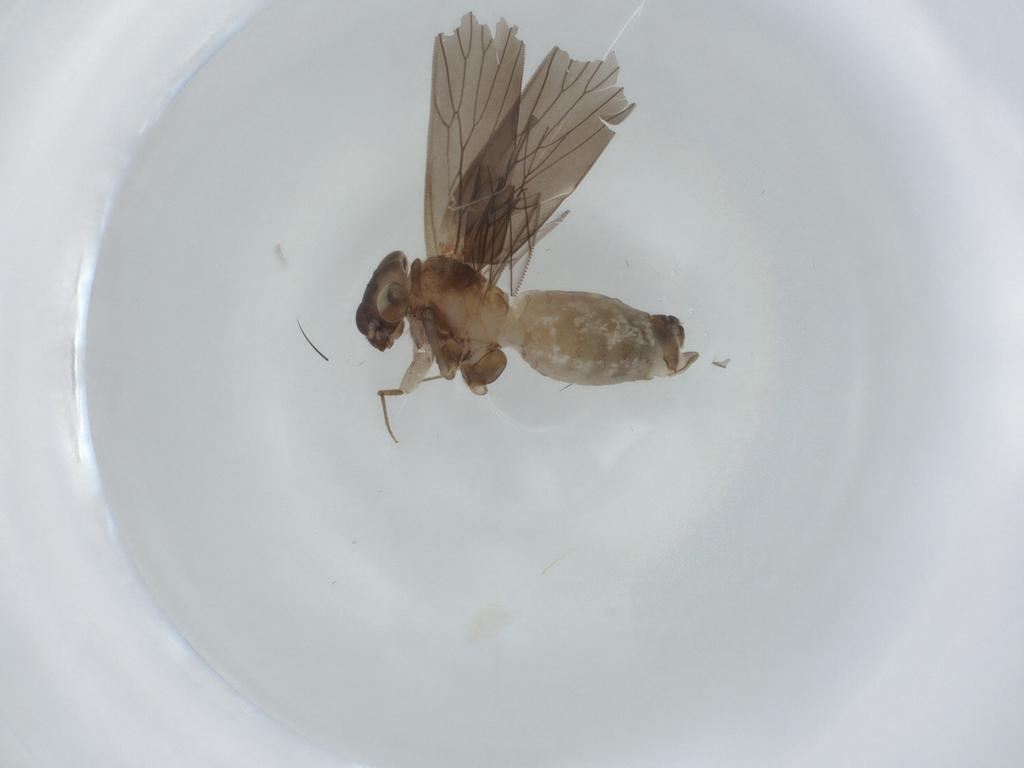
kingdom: Animalia
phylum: Arthropoda
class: Insecta
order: Psocodea
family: Lepidopsocidae
